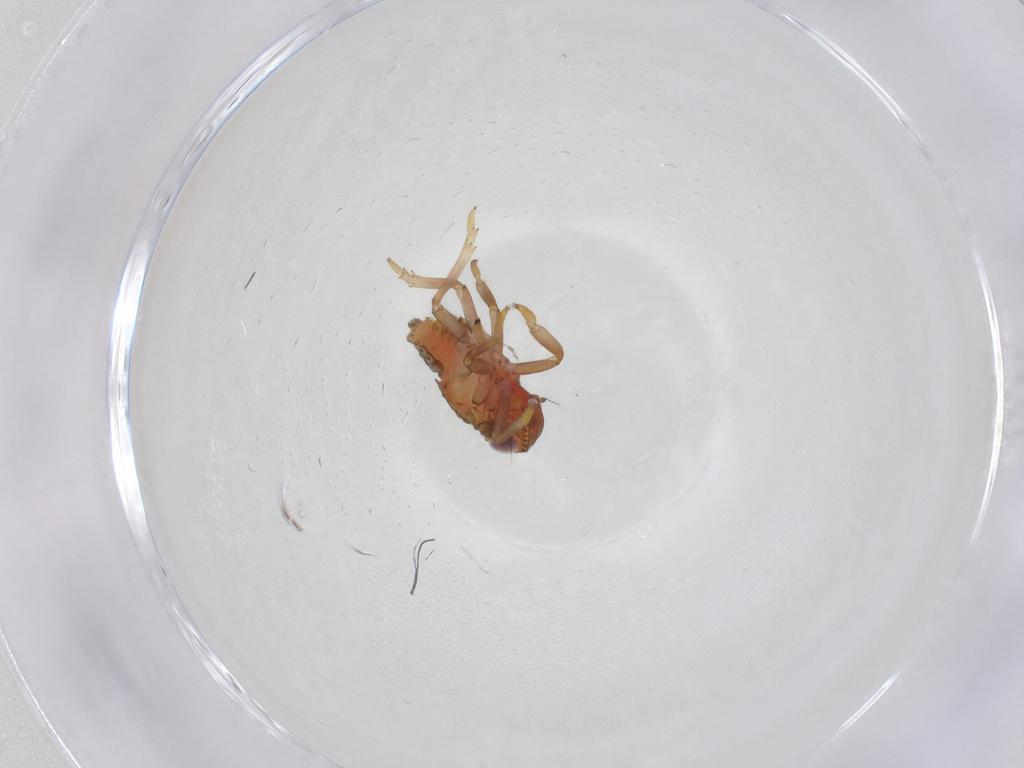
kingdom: Animalia
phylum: Arthropoda
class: Insecta
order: Hemiptera
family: Issidae
